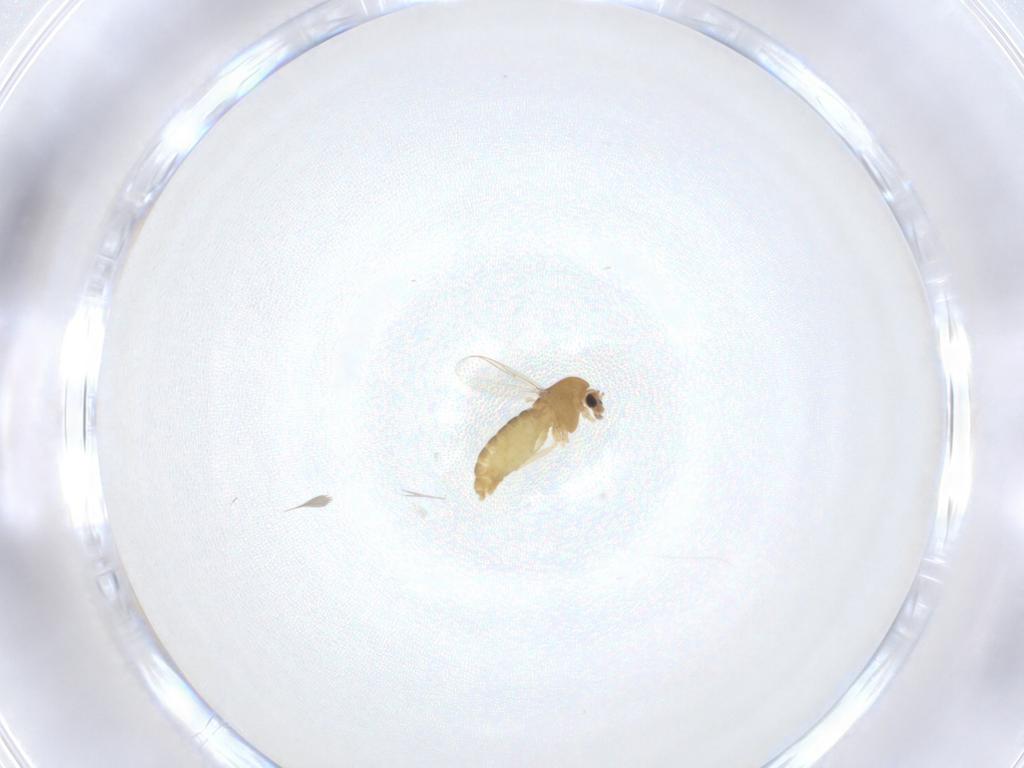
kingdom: Animalia
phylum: Arthropoda
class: Insecta
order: Diptera
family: Chironomidae
